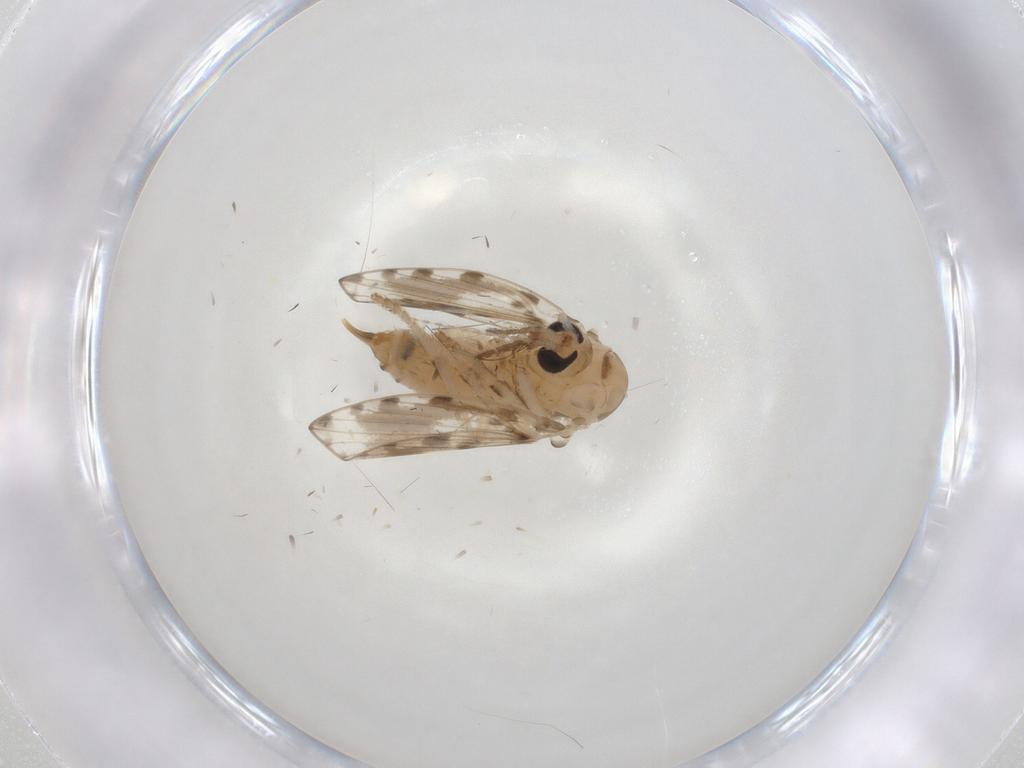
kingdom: Animalia
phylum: Arthropoda
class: Insecta
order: Diptera
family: Psychodidae
